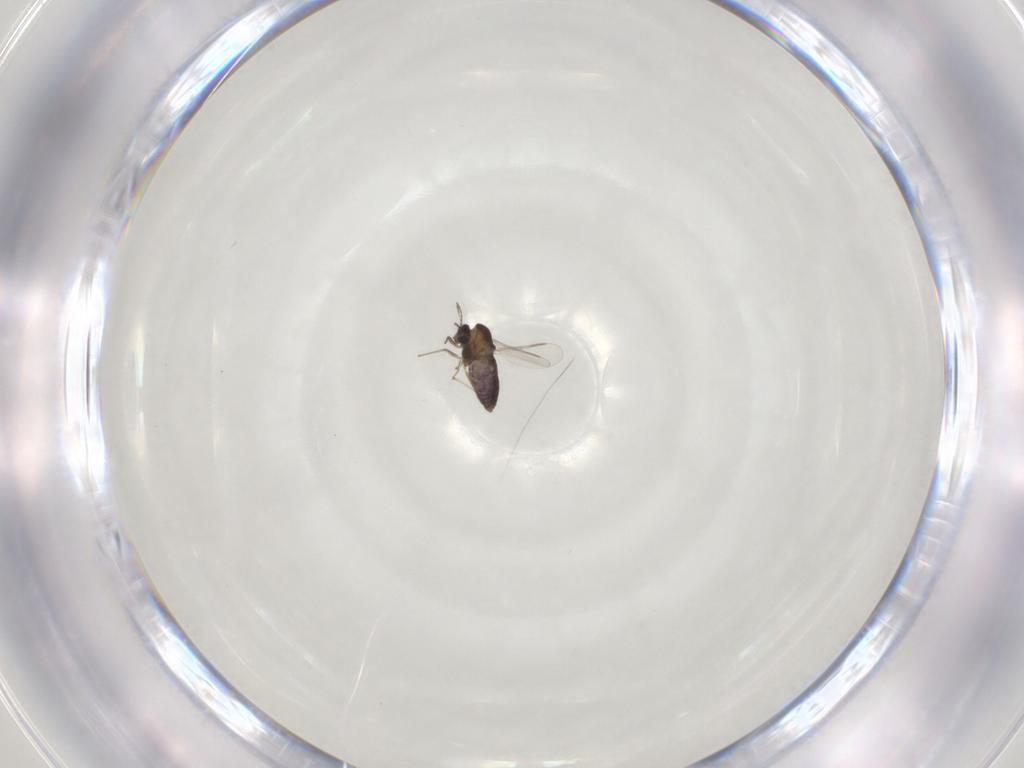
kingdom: Animalia
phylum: Arthropoda
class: Insecta
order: Diptera
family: Chironomidae
